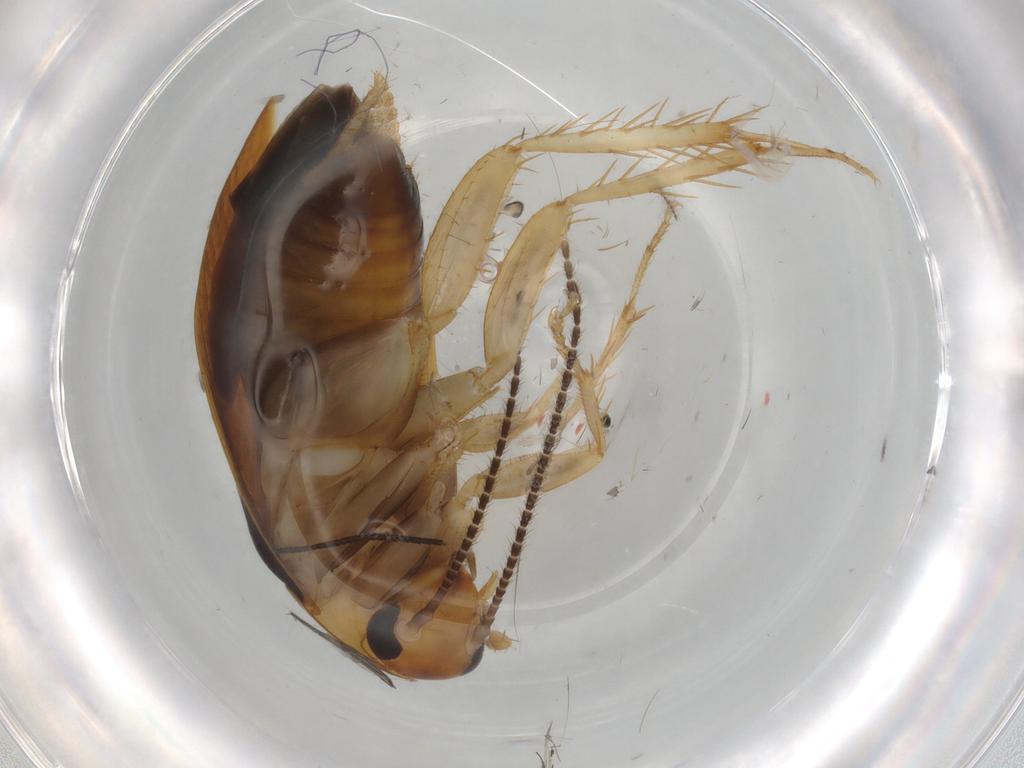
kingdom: Animalia
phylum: Arthropoda
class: Insecta
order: Blattodea
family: Tryonicidae
